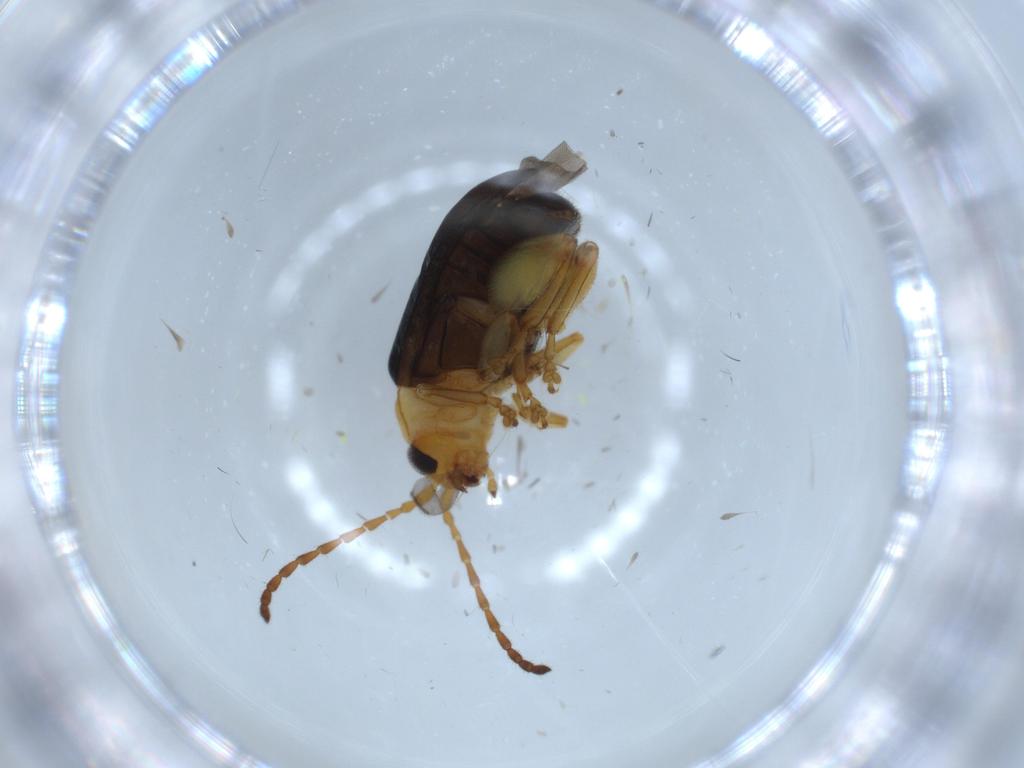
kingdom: Animalia
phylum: Arthropoda
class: Insecta
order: Coleoptera
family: Chrysomelidae
